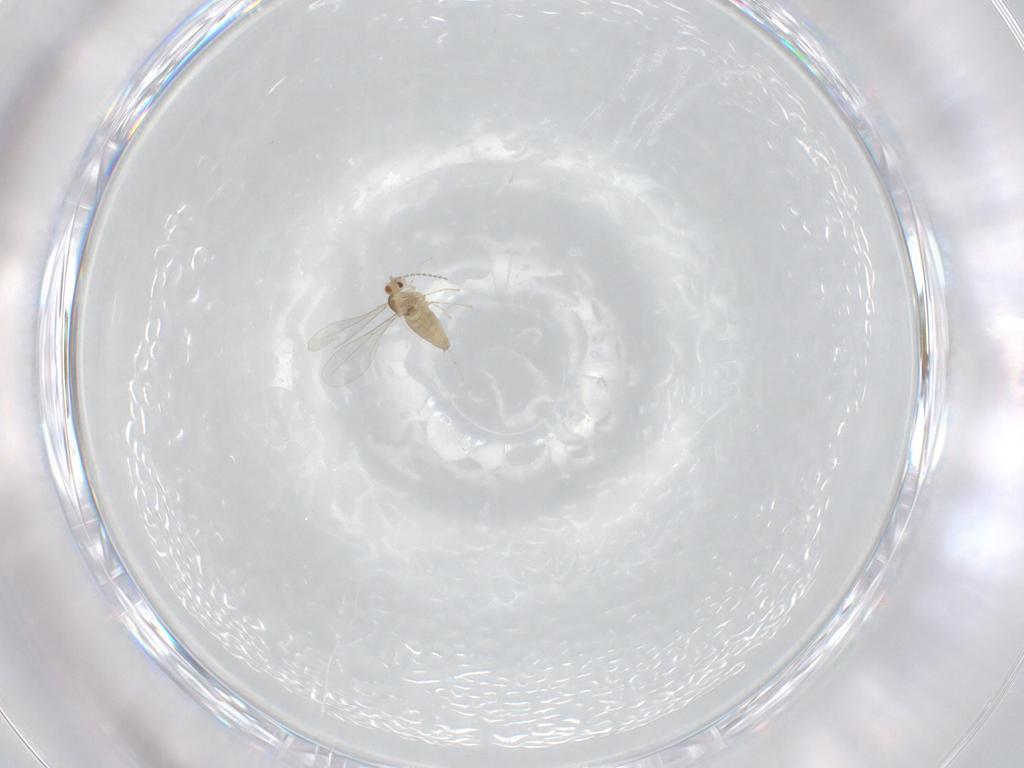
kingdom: Animalia
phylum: Arthropoda
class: Insecta
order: Diptera
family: Cecidomyiidae
